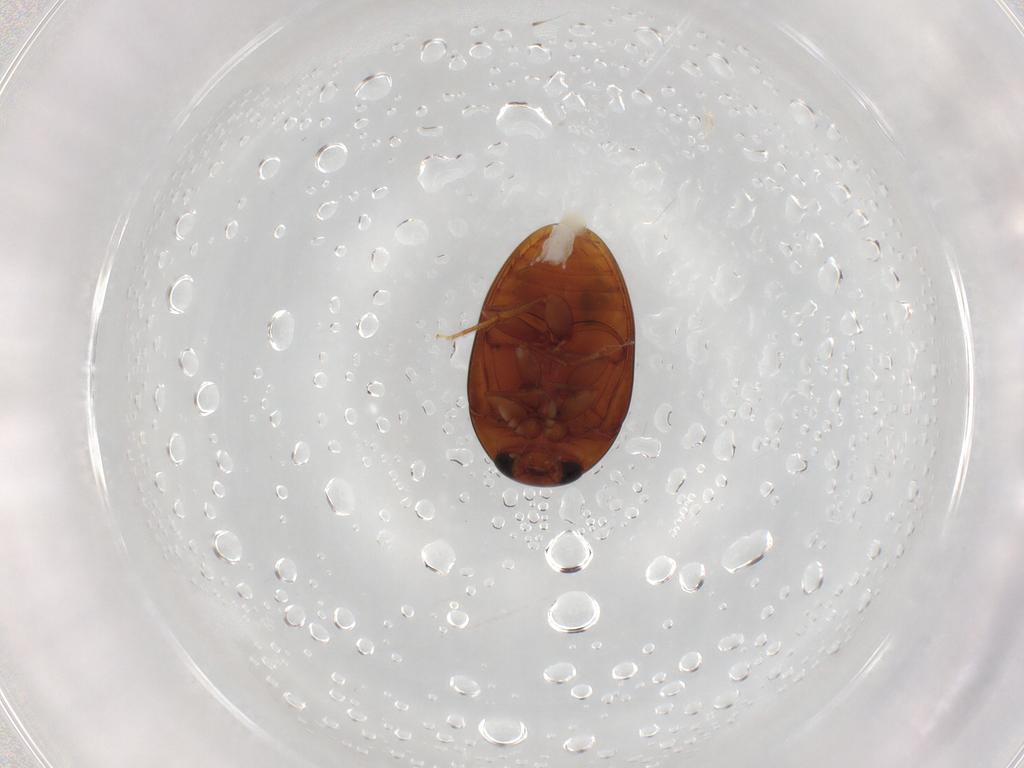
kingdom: Animalia
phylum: Arthropoda
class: Insecta
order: Coleoptera
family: Phalacridae
